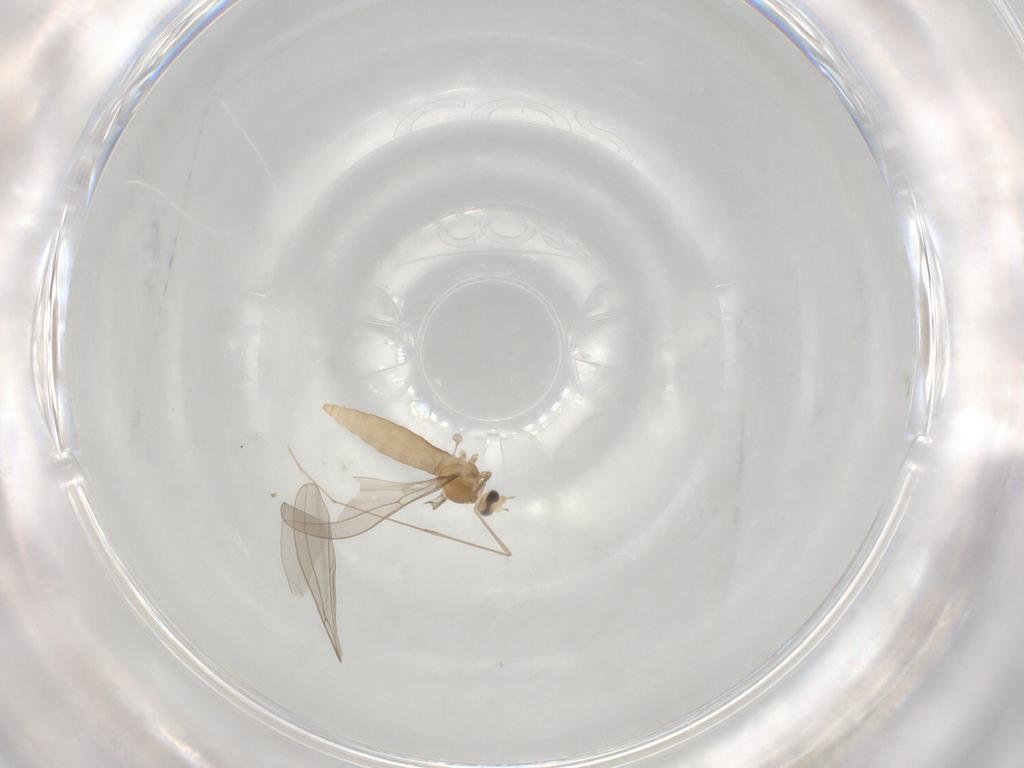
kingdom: Animalia
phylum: Arthropoda
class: Insecta
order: Diptera
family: Cecidomyiidae
